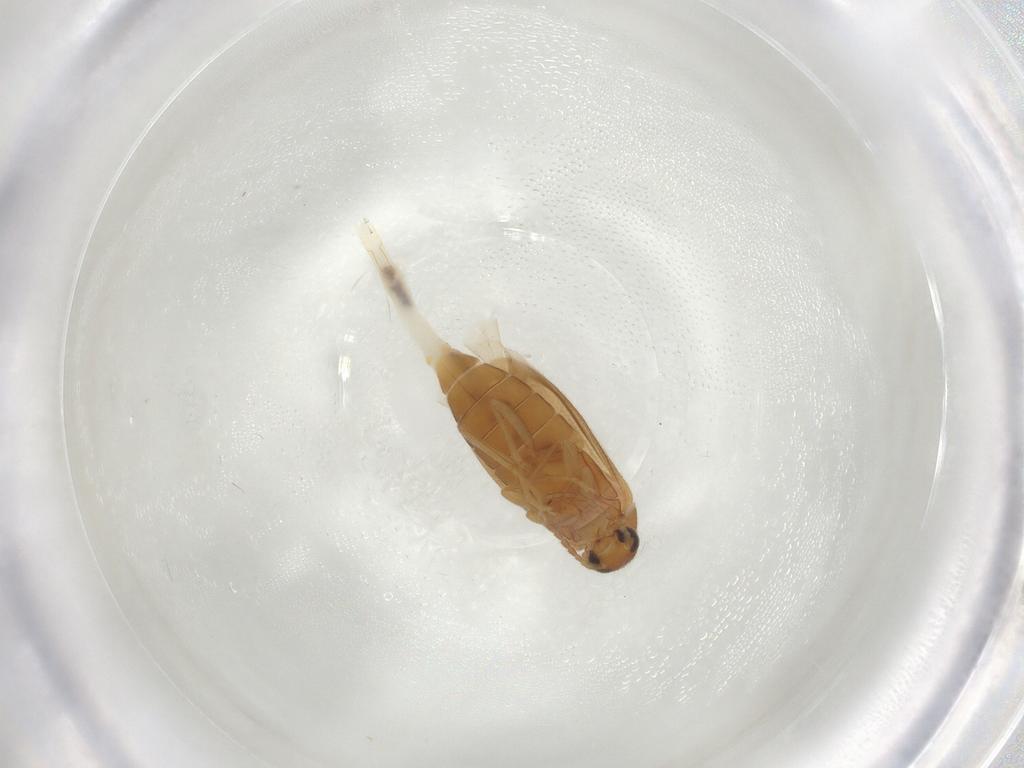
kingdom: Animalia
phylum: Arthropoda
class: Insecta
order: Coleoptera
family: Scraptiidae
